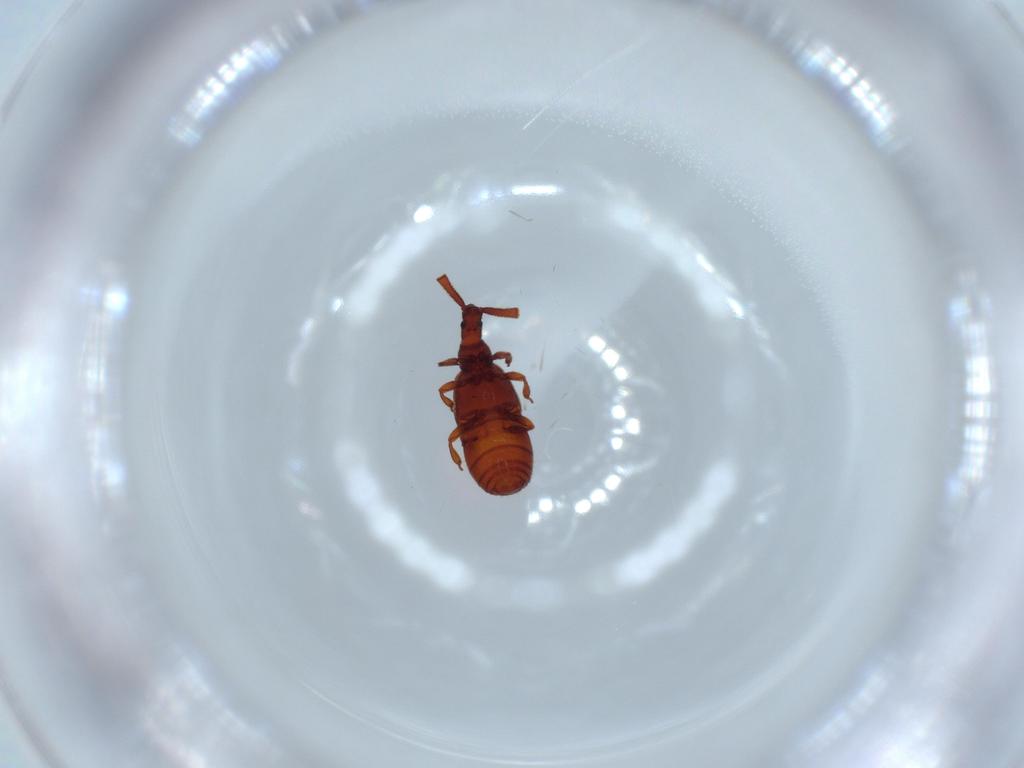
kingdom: Animalia
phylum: Arthropoda
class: Insecta
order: Coleoptera
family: Staphylinidae
